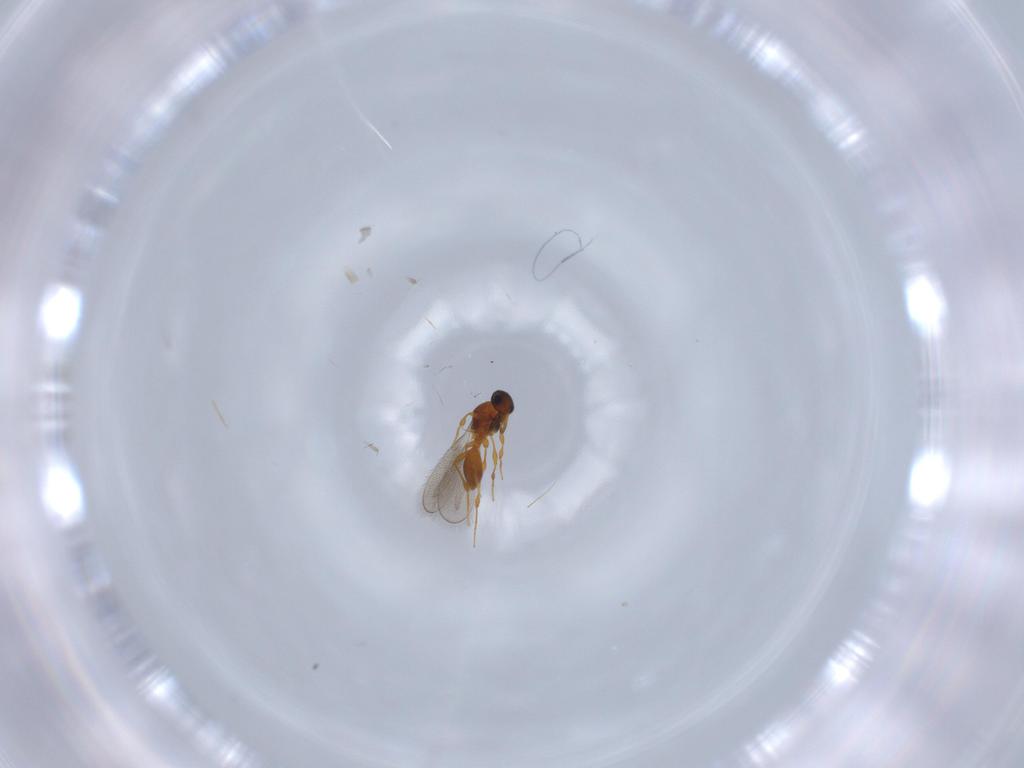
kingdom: Animalia
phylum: Arthropoda
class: Insecta
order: Hymenoptera
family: Platygastridae
